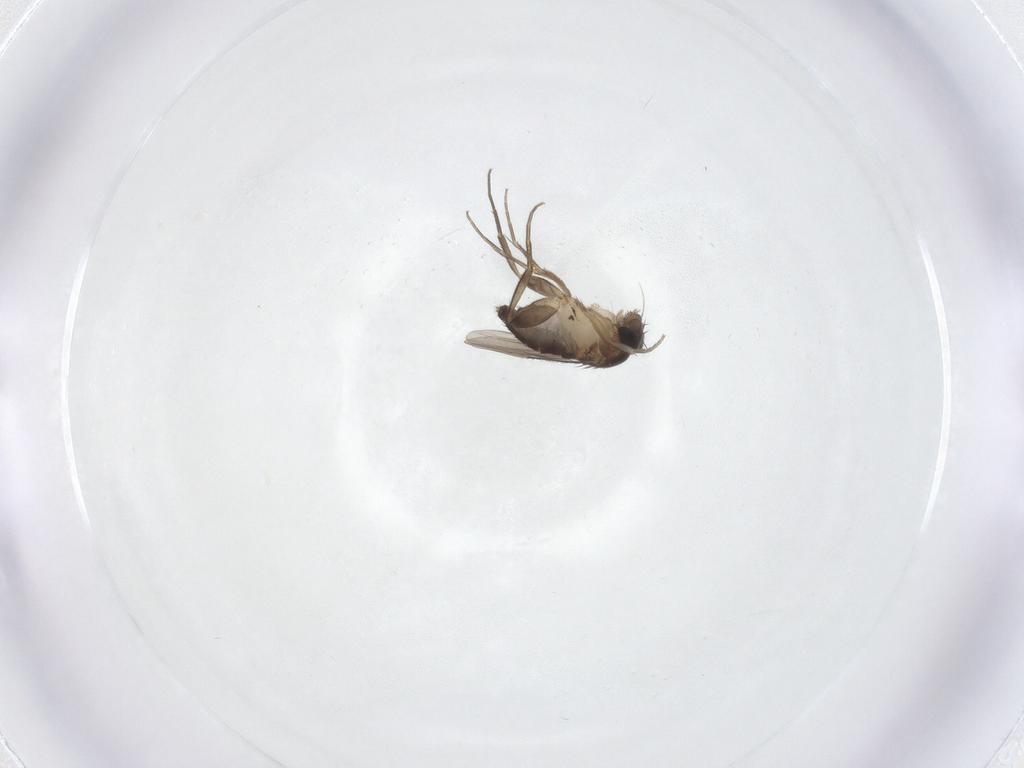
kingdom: Animalia
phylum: Arthropoda
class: Insecta
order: Diptera
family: Phoridae
